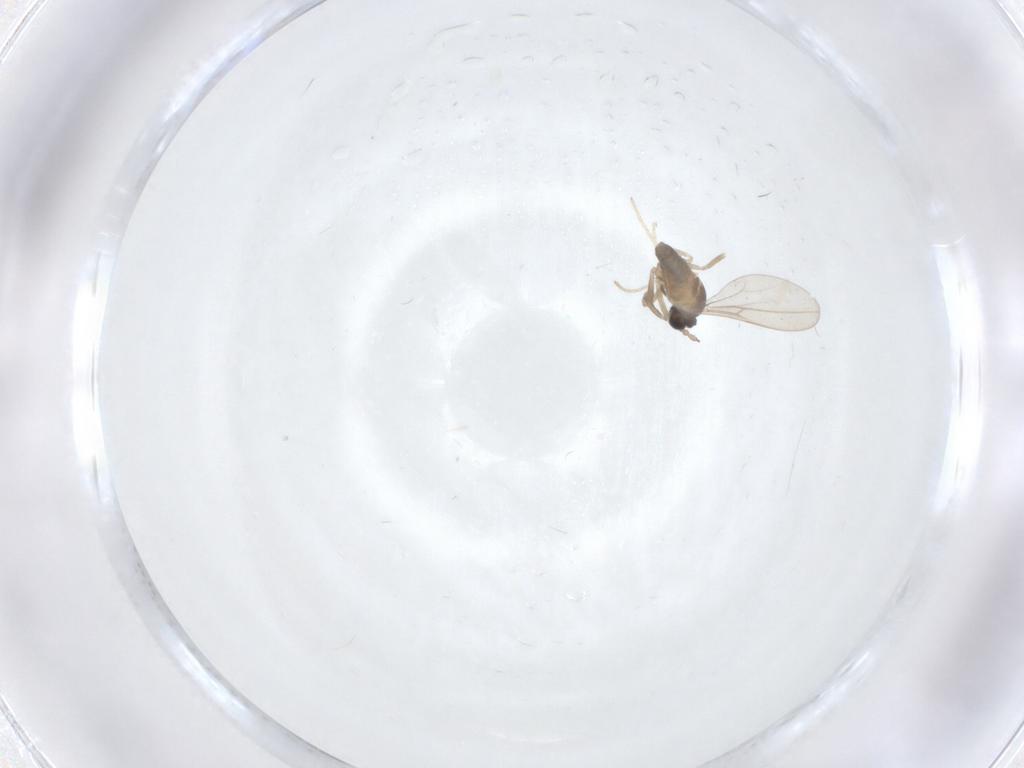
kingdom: Animalia
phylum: Arthropoda
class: Insecta
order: Diptera
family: Cecidomyiidae
